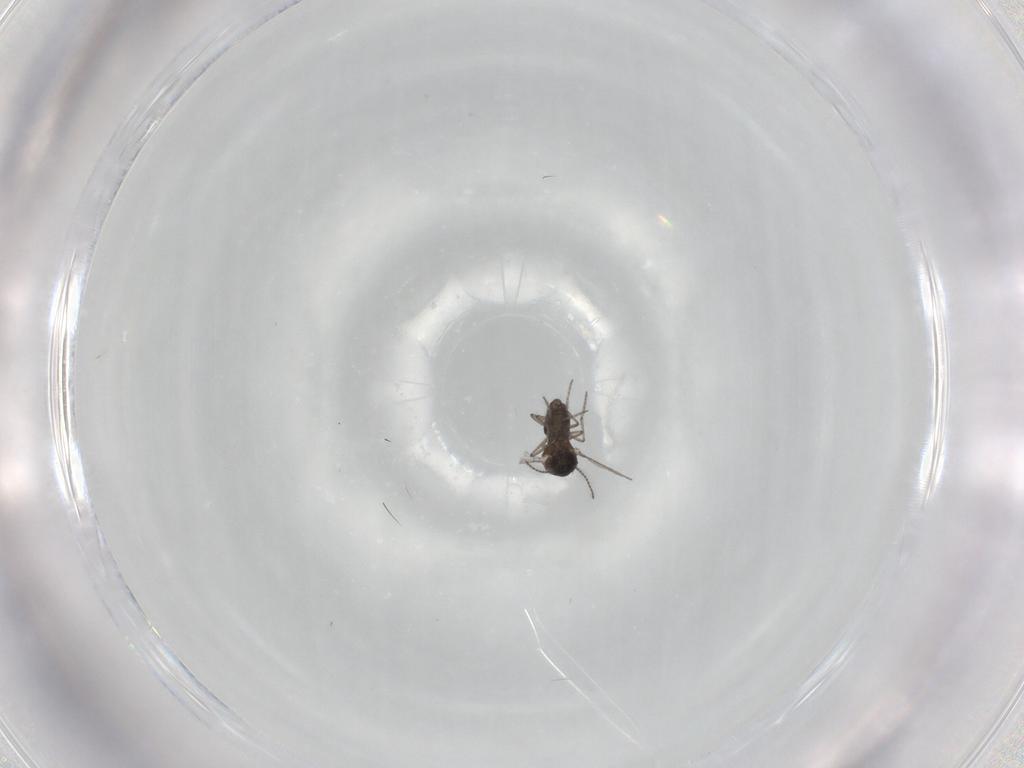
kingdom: Animalia
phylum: Arthropoda
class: Insecta
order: Diptera
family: Ceratopogonidae
